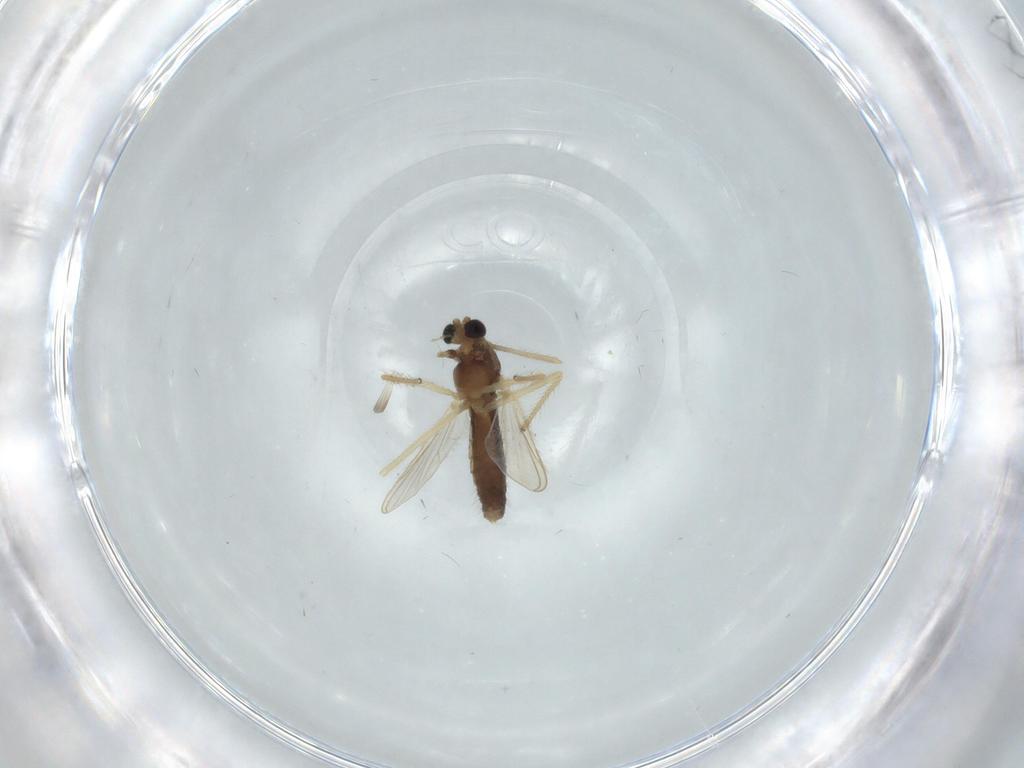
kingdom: Animalia
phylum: Arthropoda
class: Insecta
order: Diptera
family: Chironomidae
